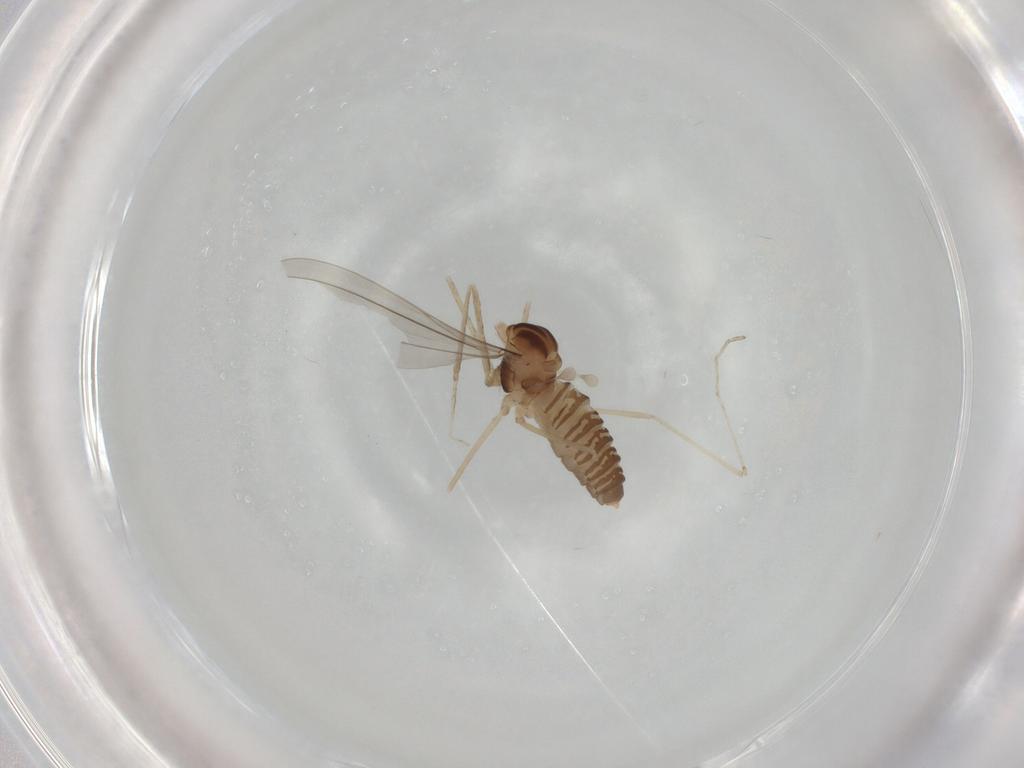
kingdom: Animalia
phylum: Arthropoda
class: Insecta
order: Diptera
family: Cecidomyiidae
